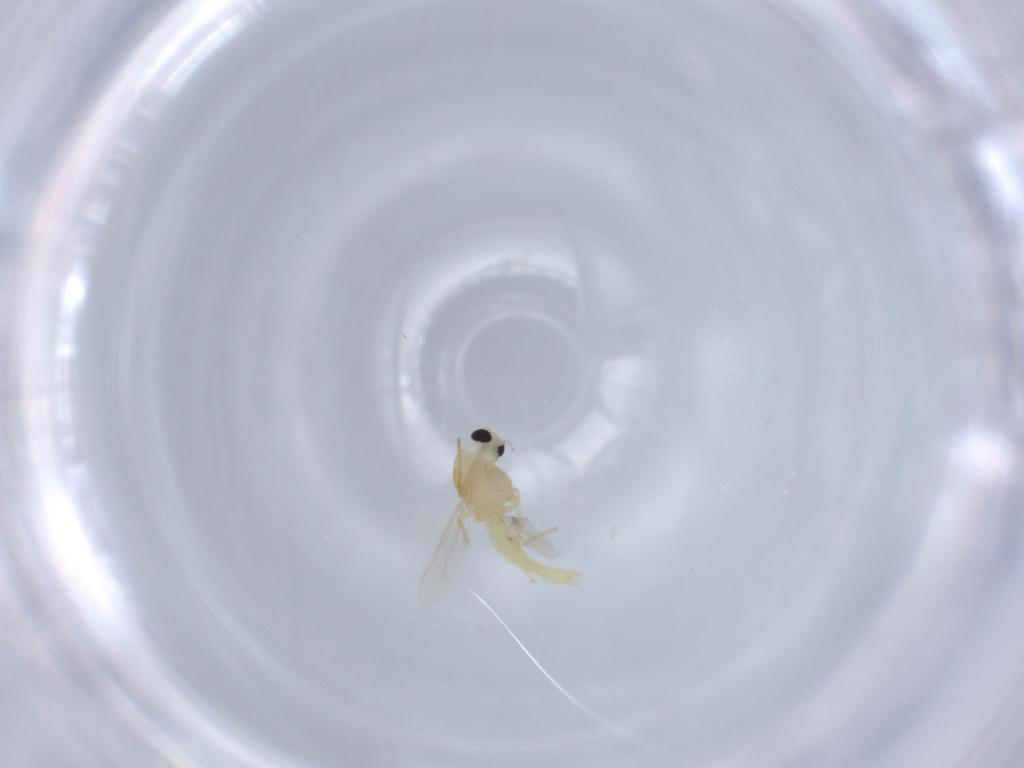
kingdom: Animalia
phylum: Arthropoda
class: Insecta
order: Diptera
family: Chironomidae
